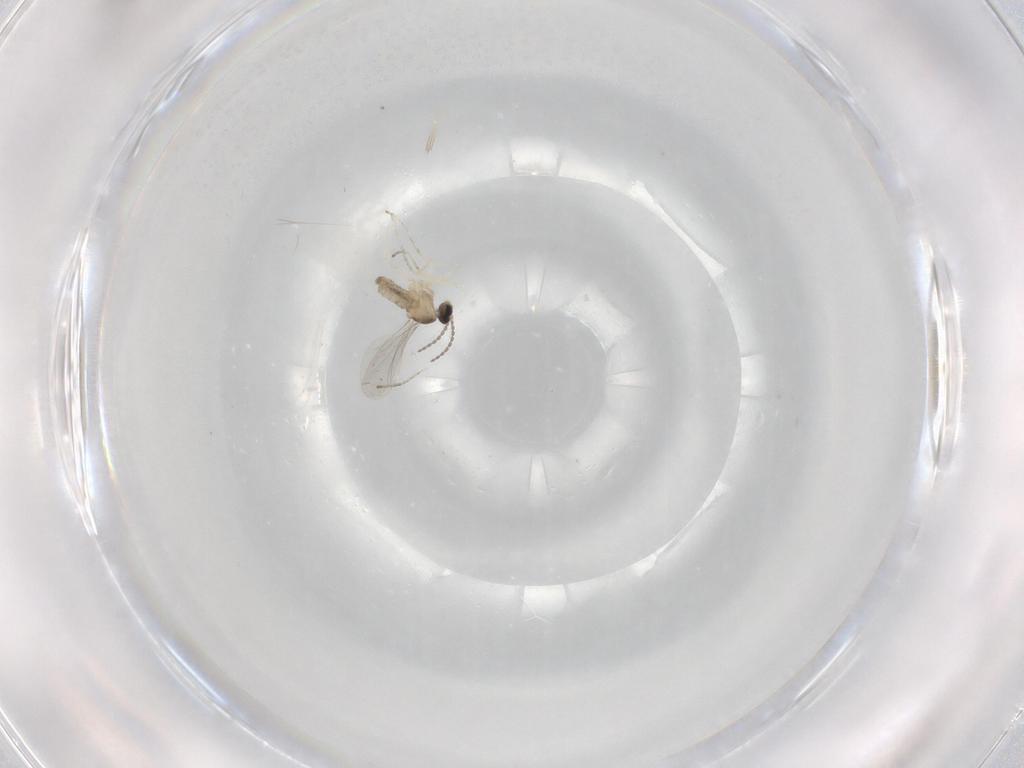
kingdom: Animalia
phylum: Arthropoda
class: Insecta
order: Diptera
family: Cecidomyiidae
